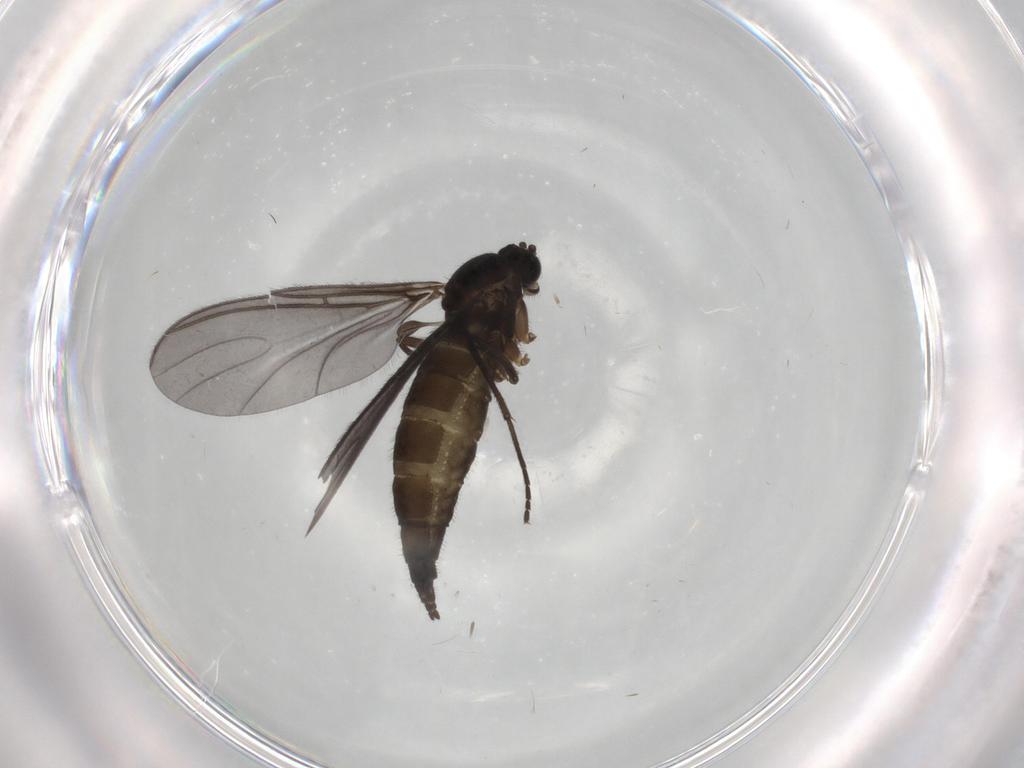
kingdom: Animalia
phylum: Arthropoda
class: Insecta
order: Diptera
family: Sciaridae
